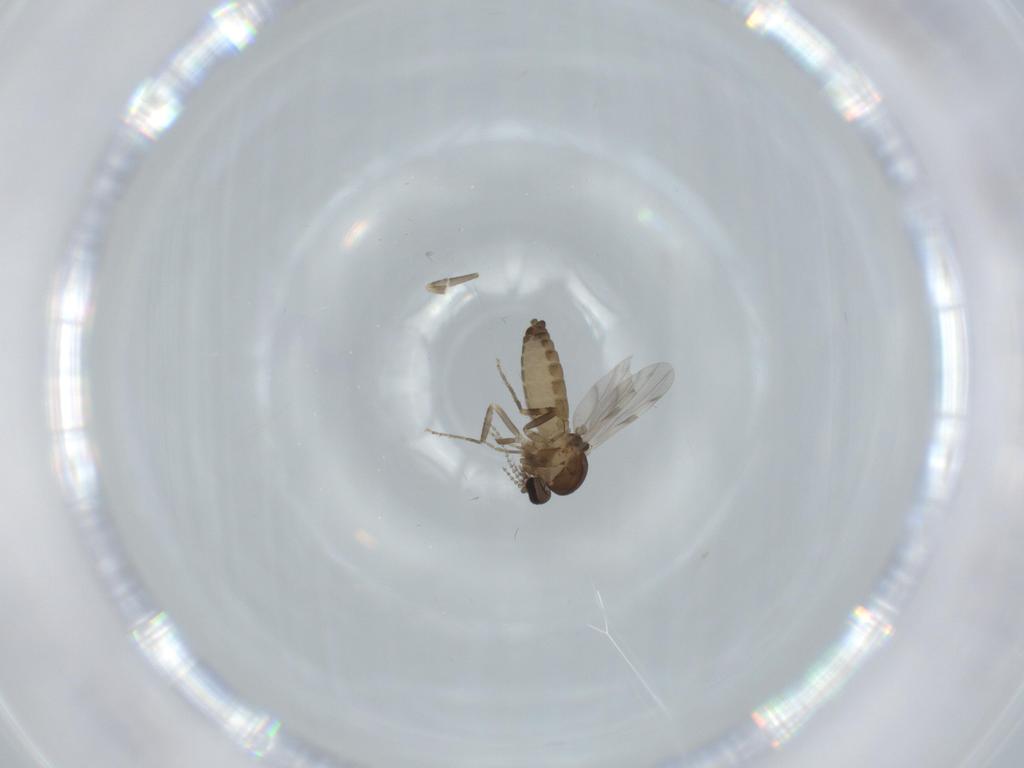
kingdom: Animalia
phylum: Arthropoda
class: Insecta
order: Diptera
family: Ceratopogonidae
